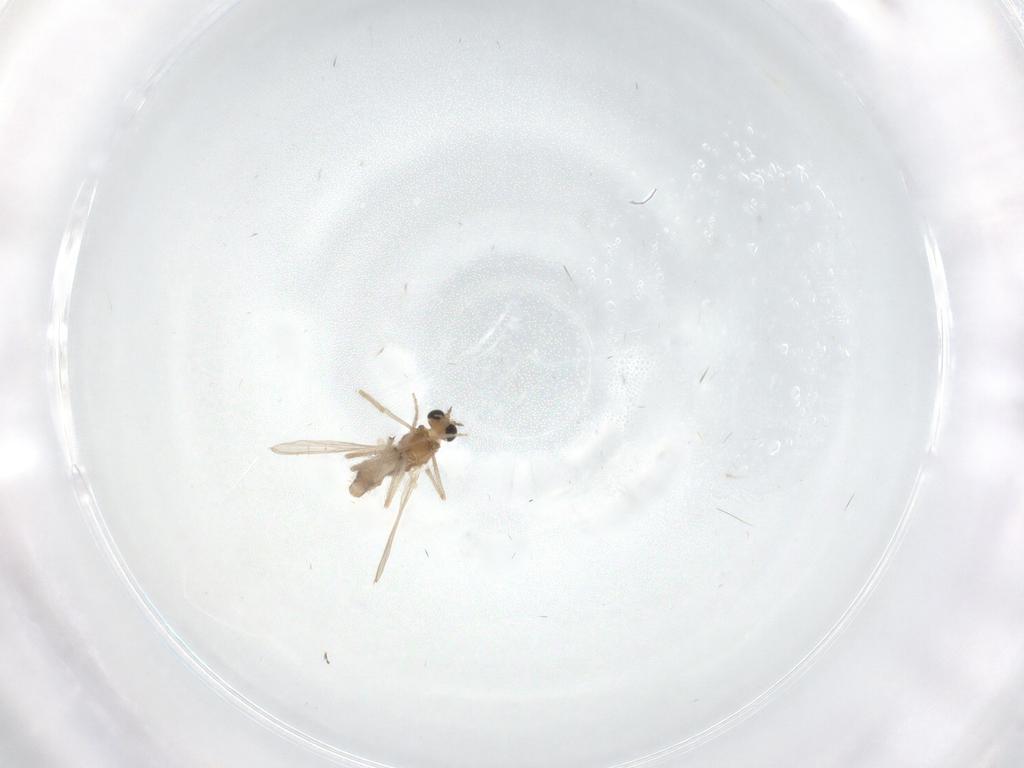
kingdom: Animalia
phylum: Arthropoda
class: Insecta
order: Diptera
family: Phoridae
